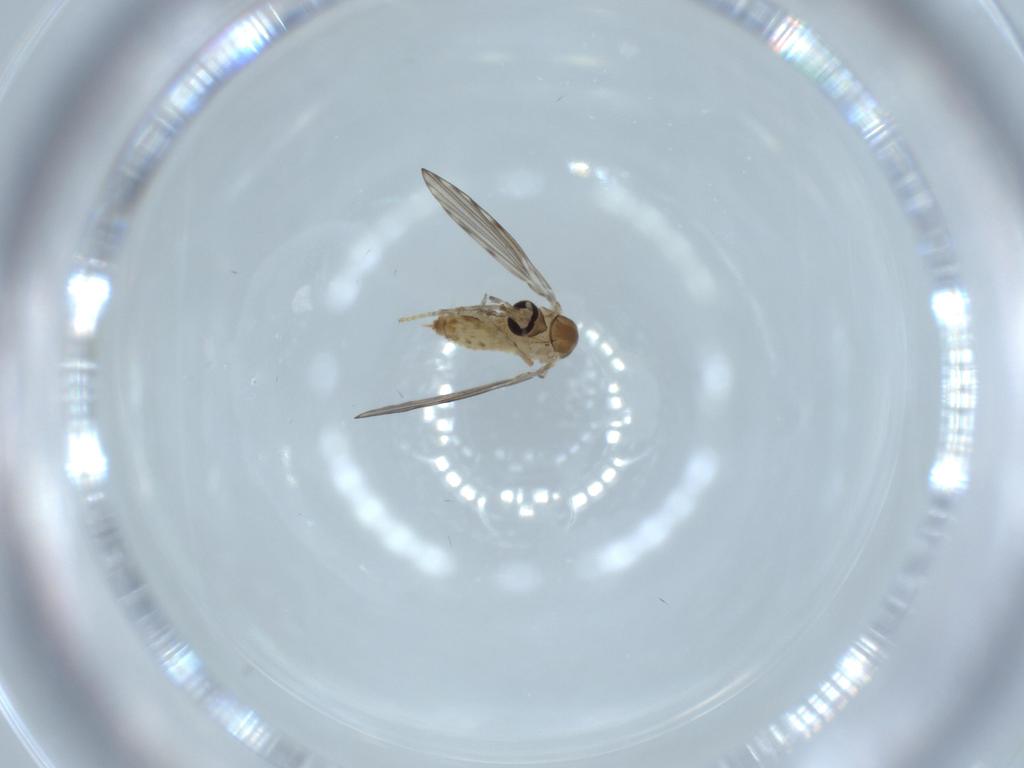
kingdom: Animalia
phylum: Arthropoda
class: Insecta
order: Diptera
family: Psychodidae
